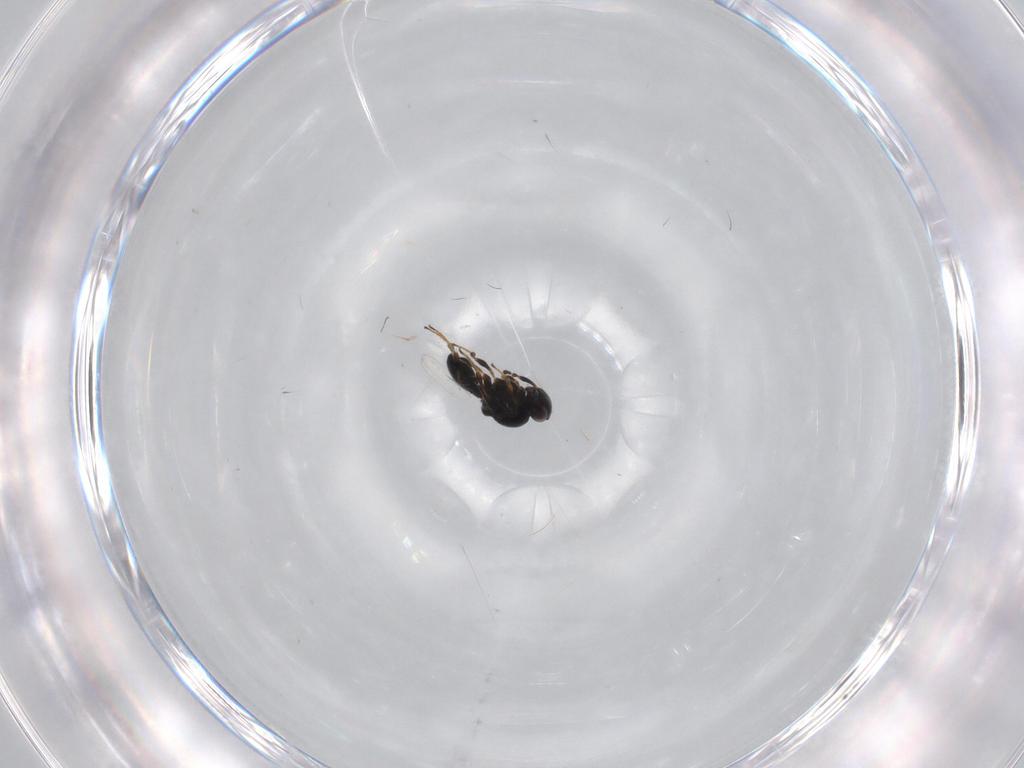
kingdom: Animalia
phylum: Arthropoda
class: Insecta
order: Hymenoptera
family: Platygastridae
